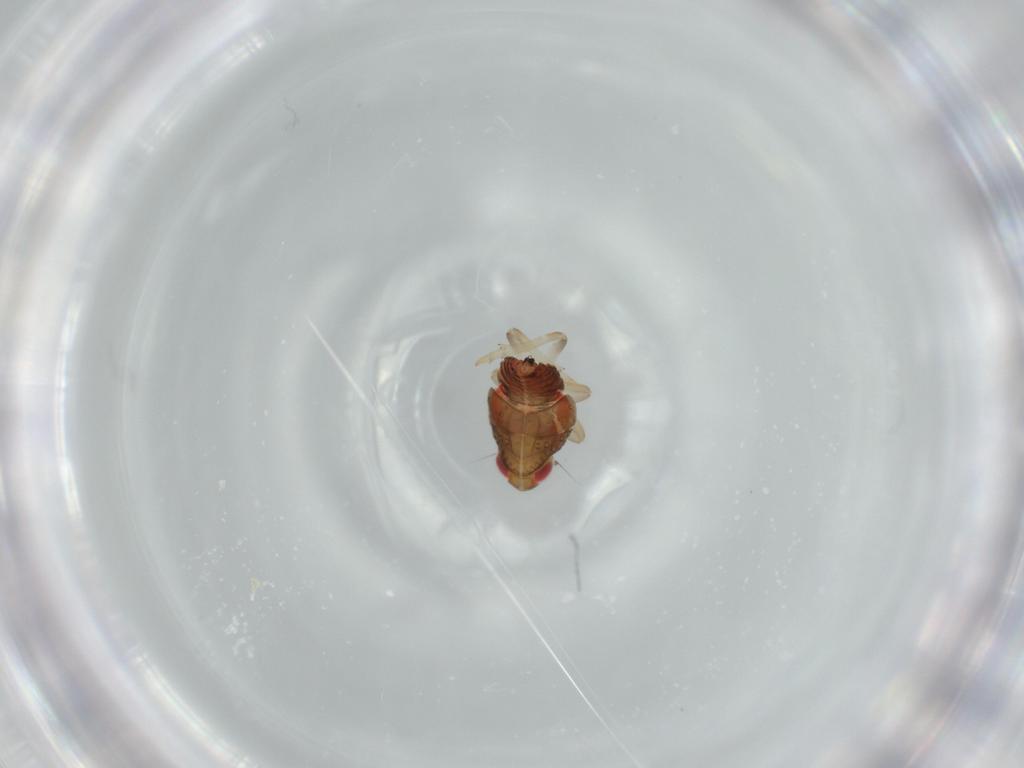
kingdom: Animalia
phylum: Arthropoda
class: Insecta
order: Hemiptera
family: Issidae
